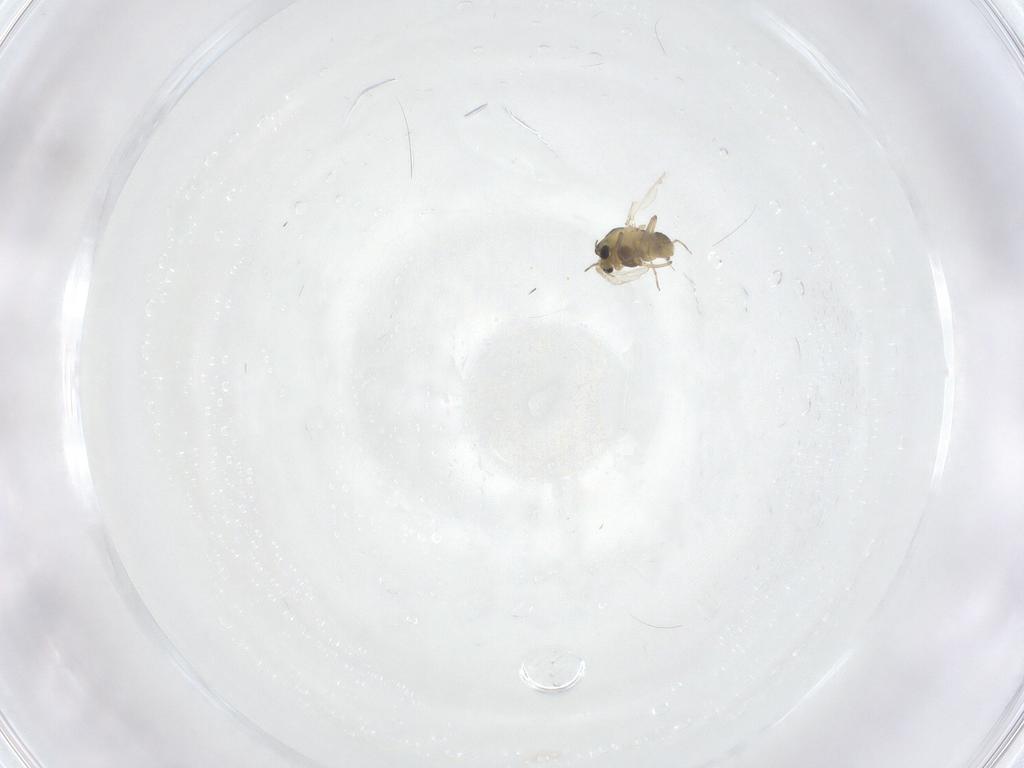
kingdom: Animalia
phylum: Arthropoda
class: Insecta
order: Diptera
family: Chironomidae
